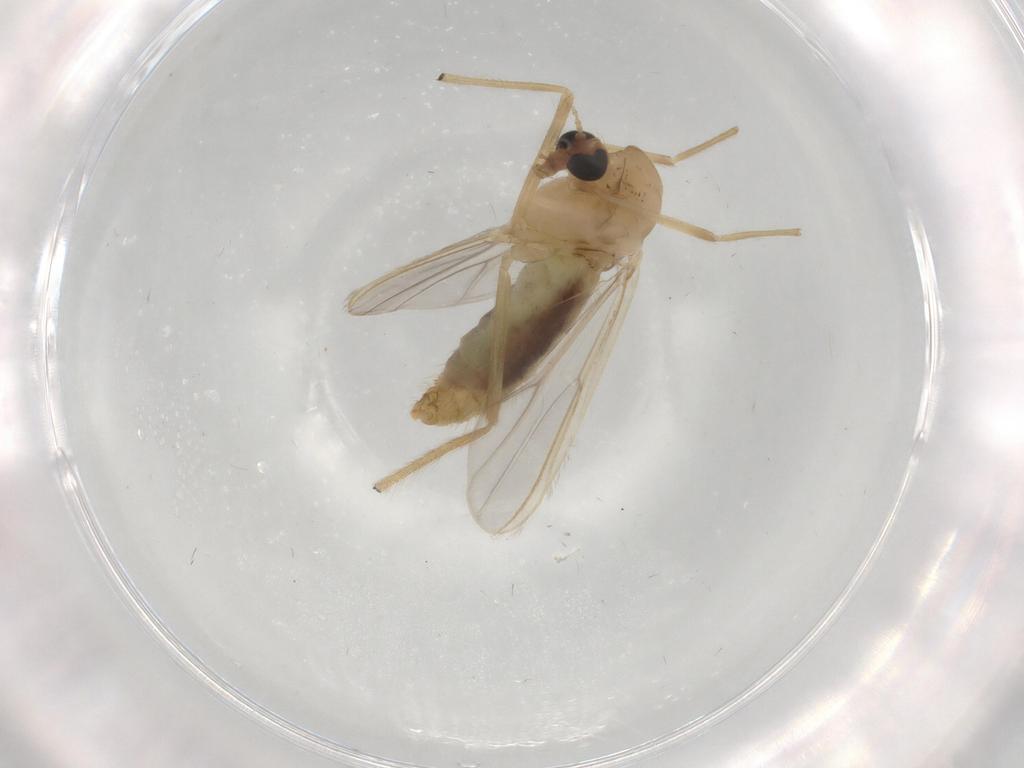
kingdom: Animalia
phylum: Arthropoda
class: Insecta
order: Diptera
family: Chironomidae
